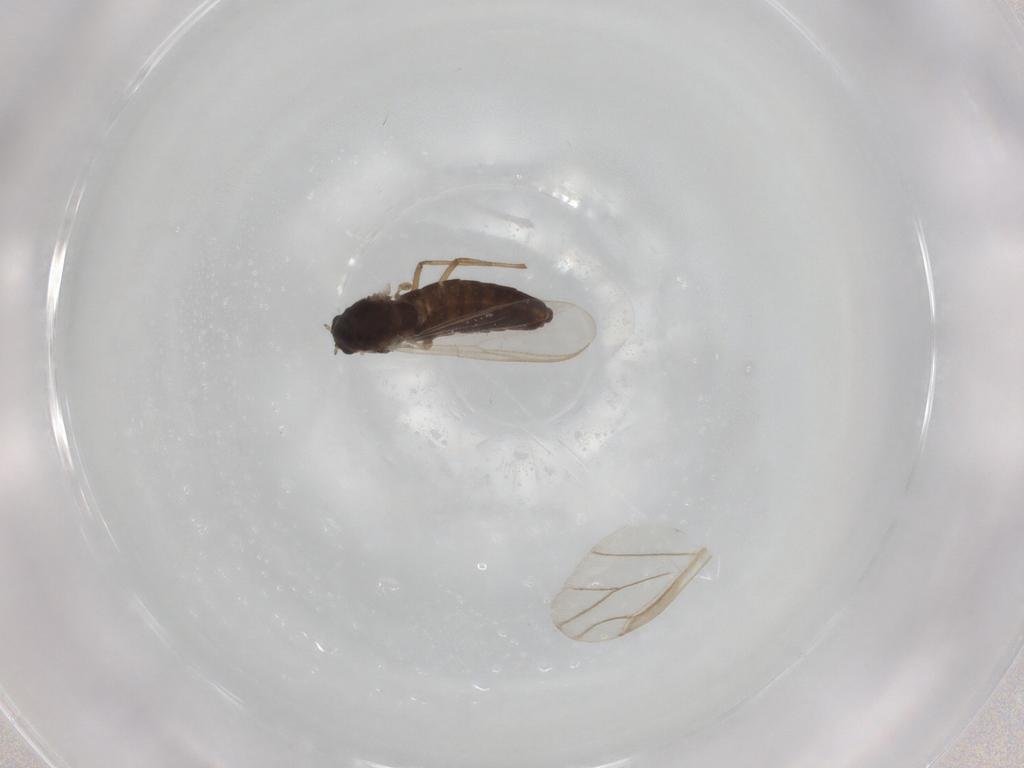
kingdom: Animalia
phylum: Arthropoda
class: Insecta
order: Diptera
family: Chironomidae
